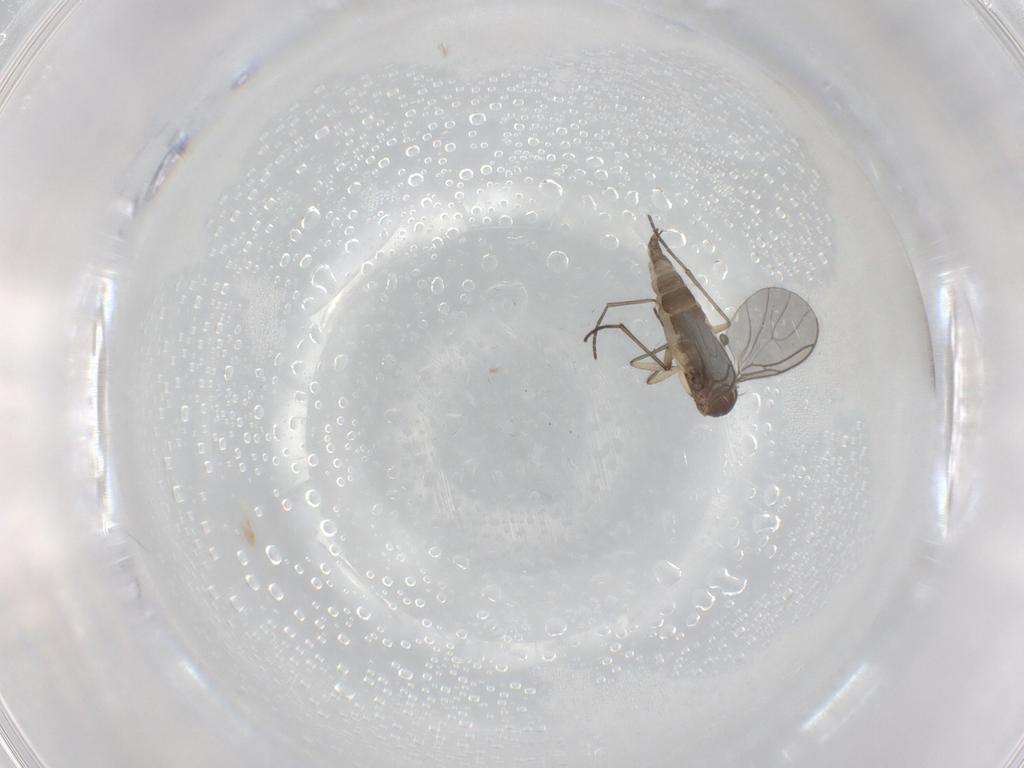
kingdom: Animalia
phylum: Arthropoda
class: Insecta
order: Diptera
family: Sciaridae
